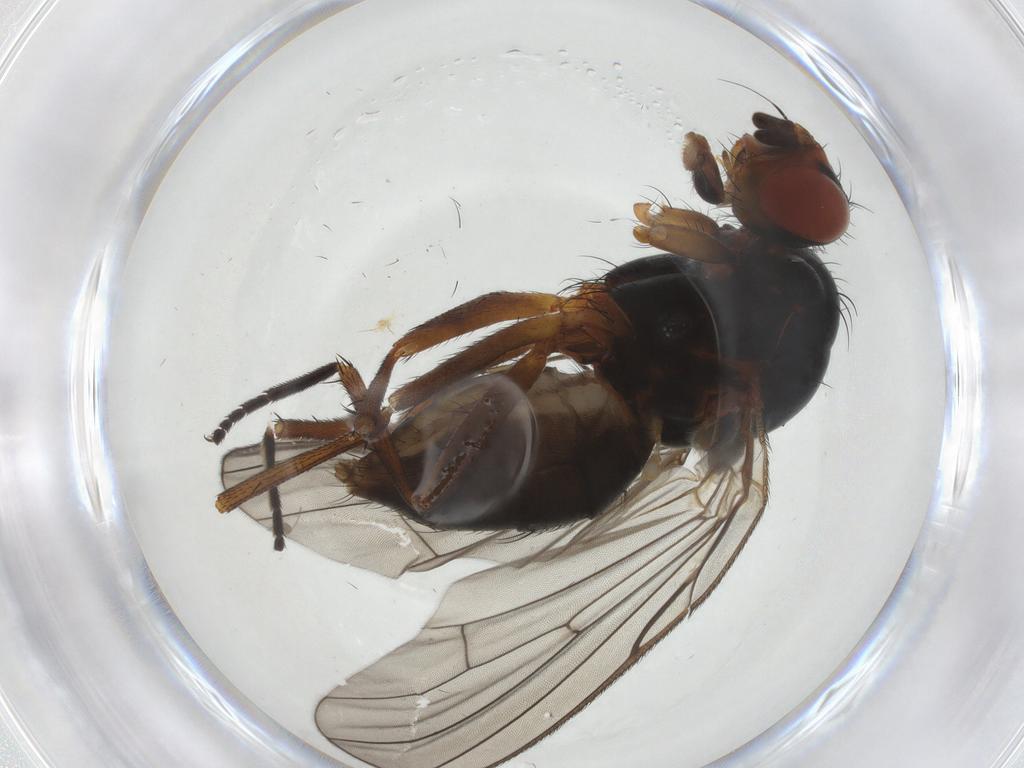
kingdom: Animalia
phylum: Arthropoda
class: Insecta
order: Diptera
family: Anthomyiidae
